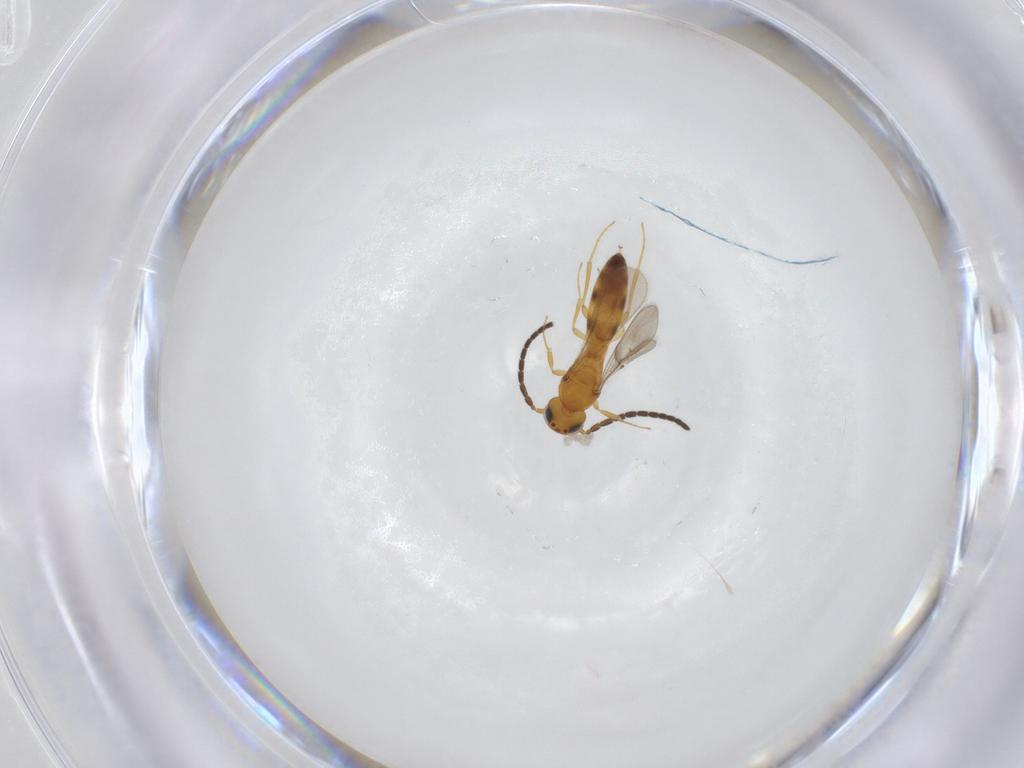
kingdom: Animalia
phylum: Arthropoda
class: Insecta
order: Hymenoptera
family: Scelionidae
